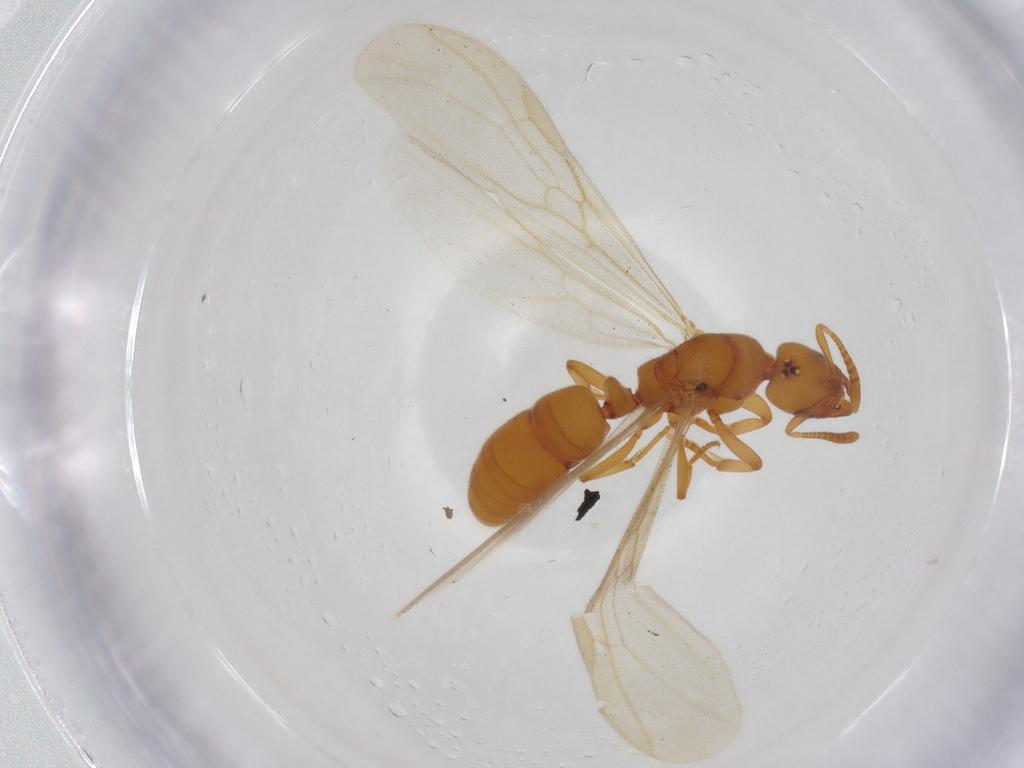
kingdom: Animalia
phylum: Arthropoda
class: Insecta
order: Hymenoptera
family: Formicidae
